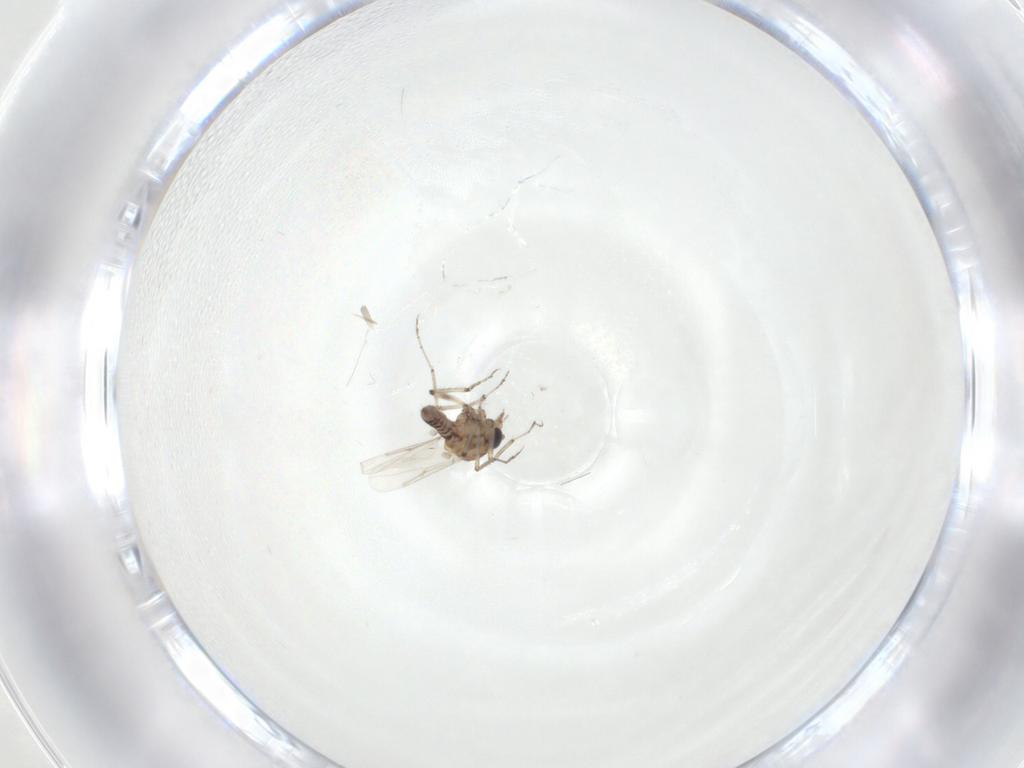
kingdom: Animalia
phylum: Arthropoda
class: Insecta
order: Diptera
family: Ceratopogonidae
